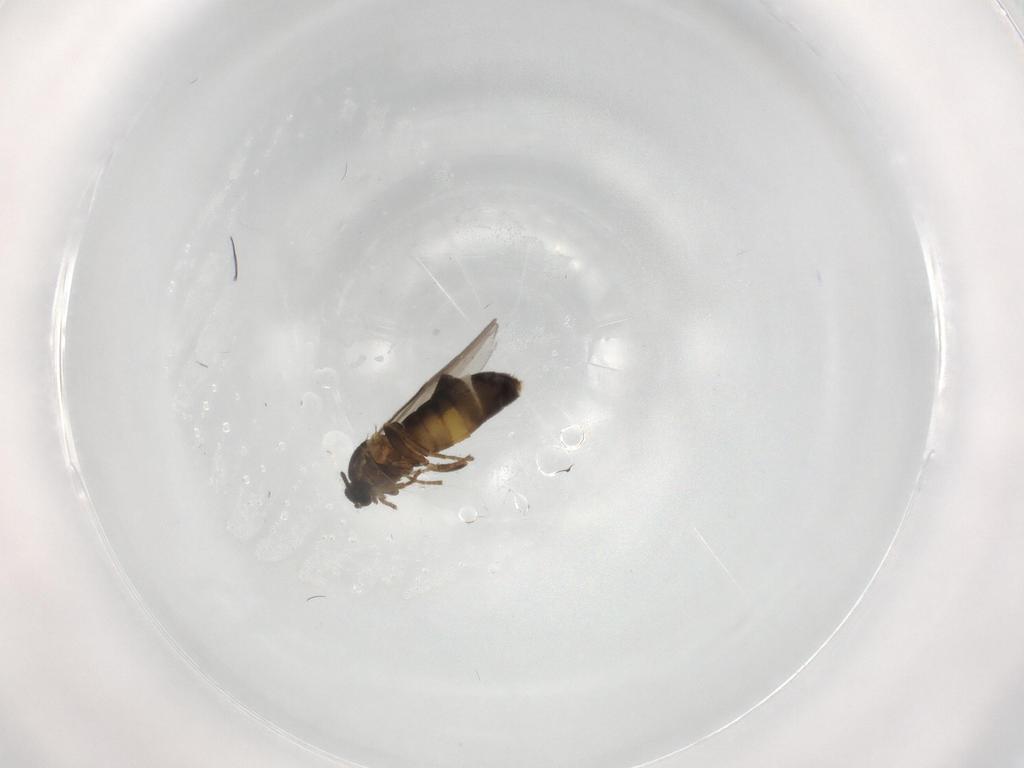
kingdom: Animalia
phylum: Arthropoda
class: Insecta
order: Diptera
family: Scatopsidae
